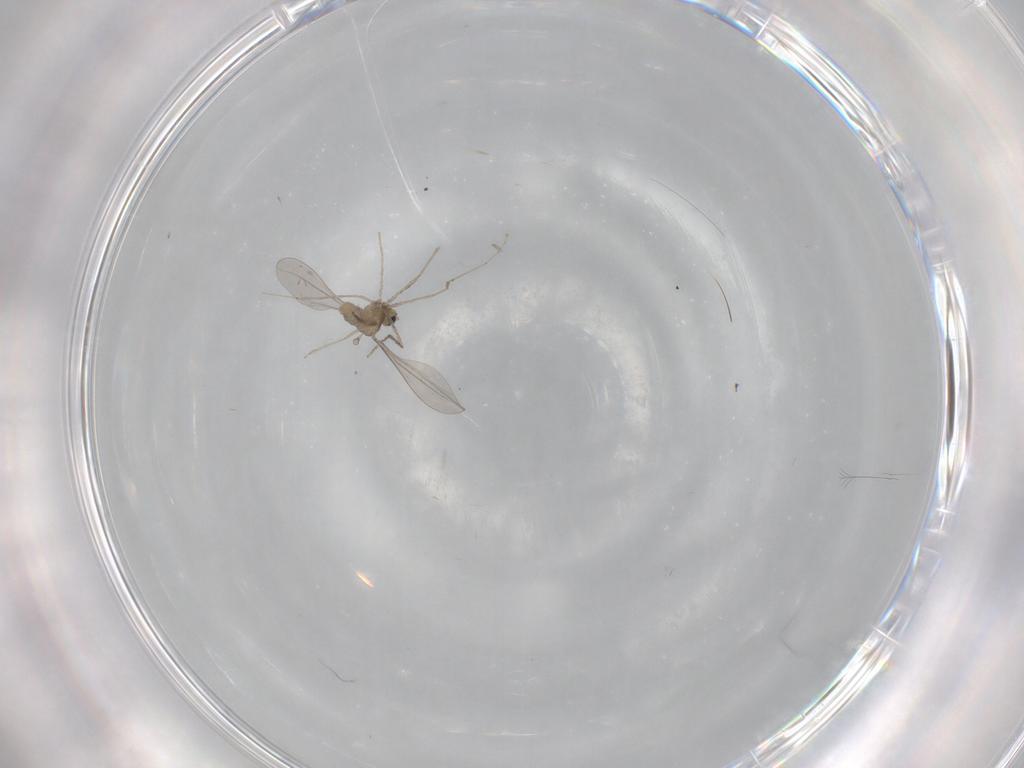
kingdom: Animalia
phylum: Arthropoda
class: Insecta
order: Diptera
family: Cecidomyiidae
